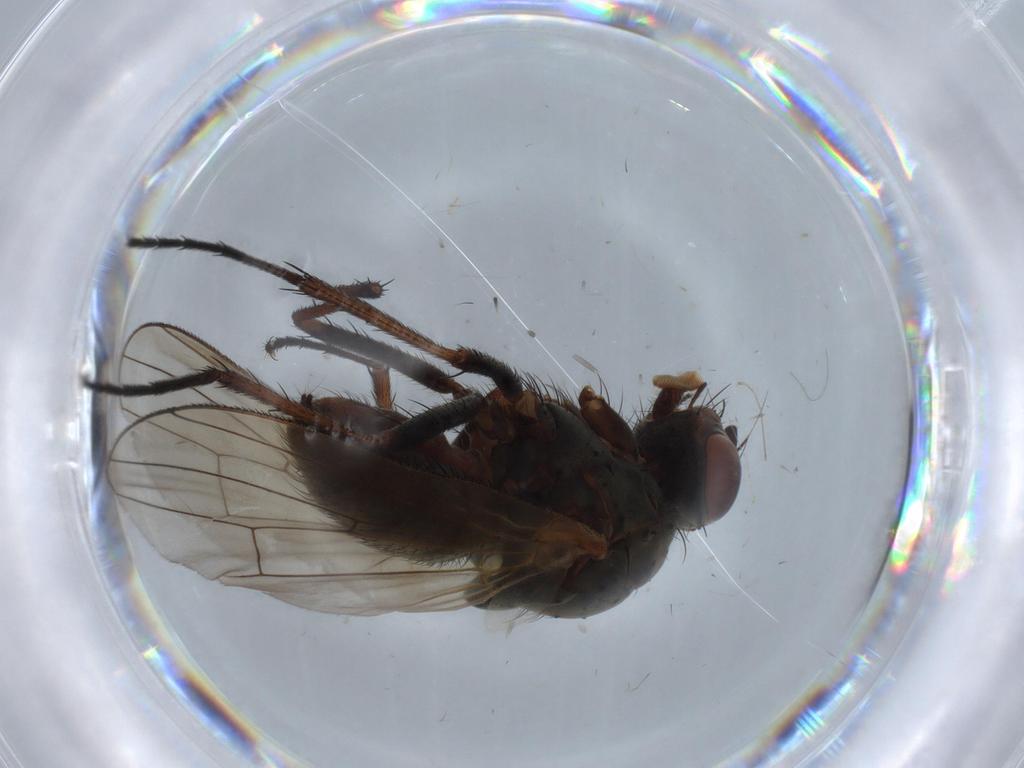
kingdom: Animalia
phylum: Arthropoda
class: Insecta
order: Diptera
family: Anthomyiidae
